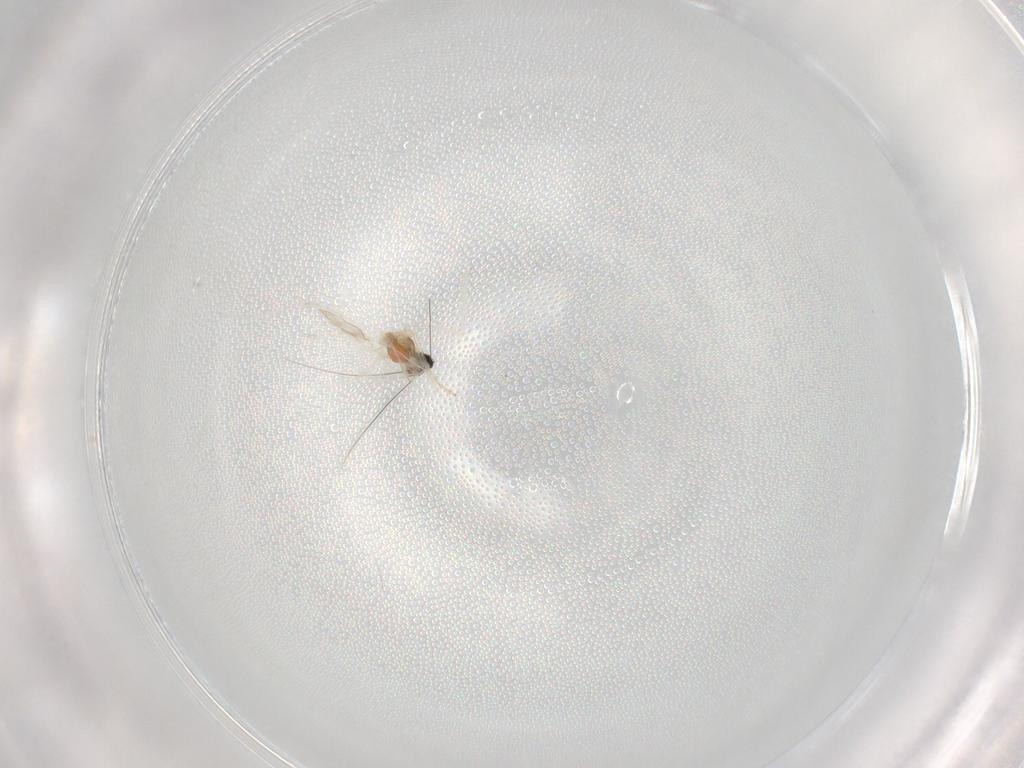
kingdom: Animalia
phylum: Arthropoda
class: Insecta
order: Diptera
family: Cecidomyiidae
